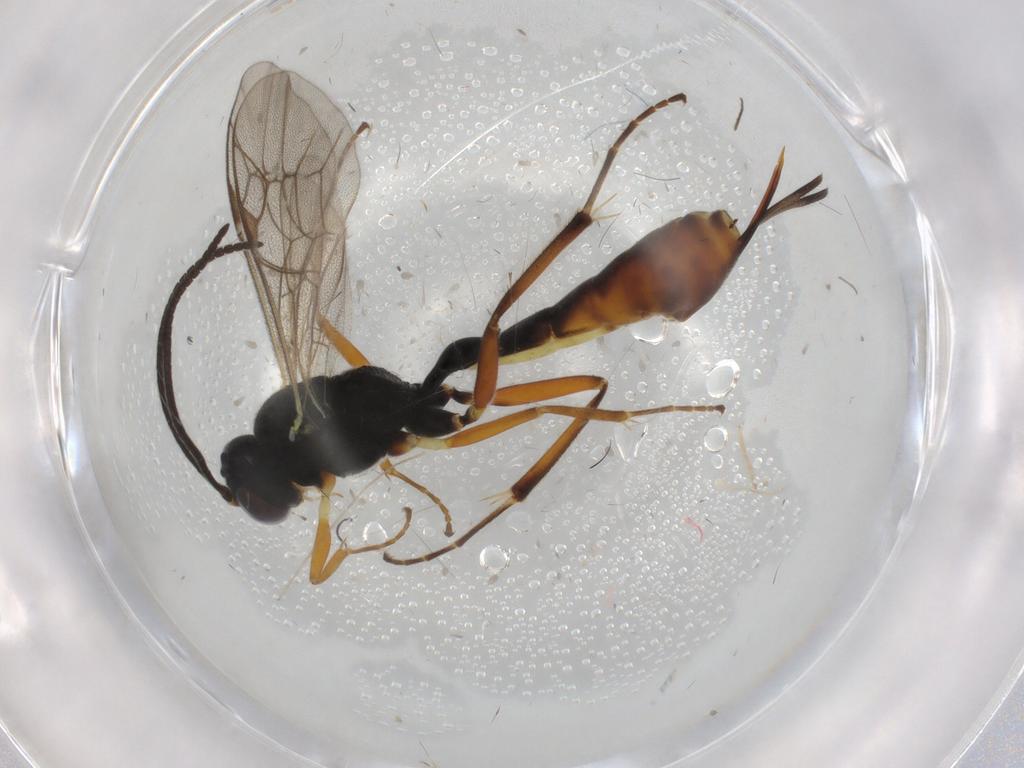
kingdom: Animalia
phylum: Arthropoda
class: Insecta
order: Hymenoptera
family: Ichneumonidae
